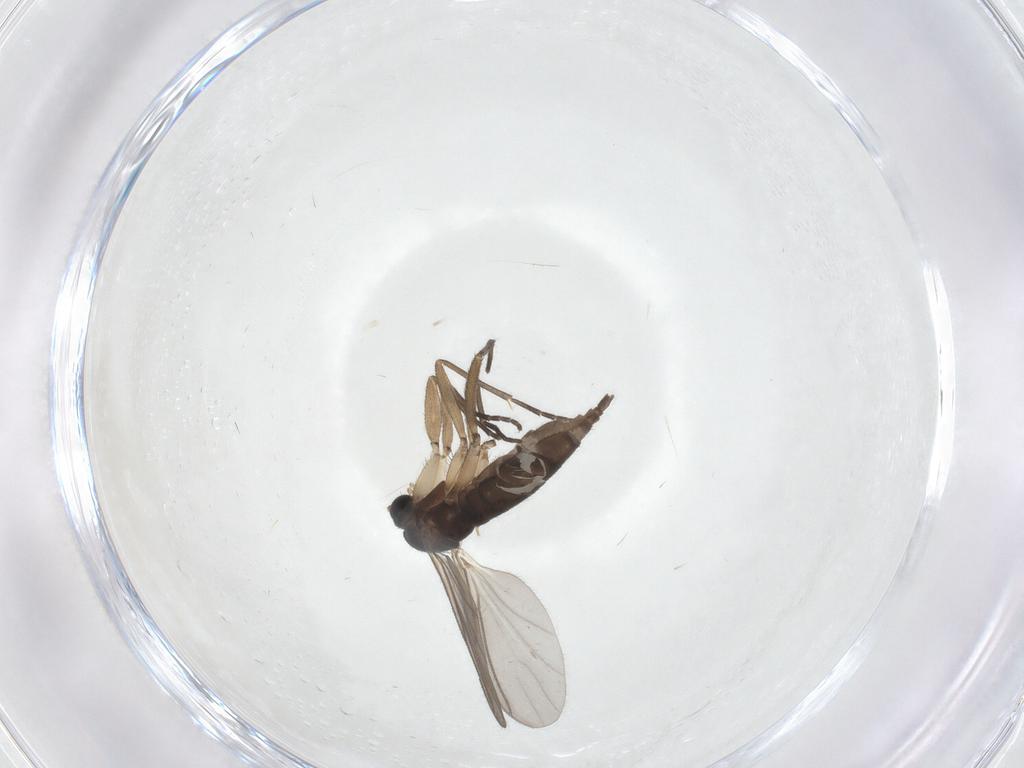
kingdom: Animalia
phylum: Arthropoda
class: Insecta
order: Diptera
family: Sciaridae
